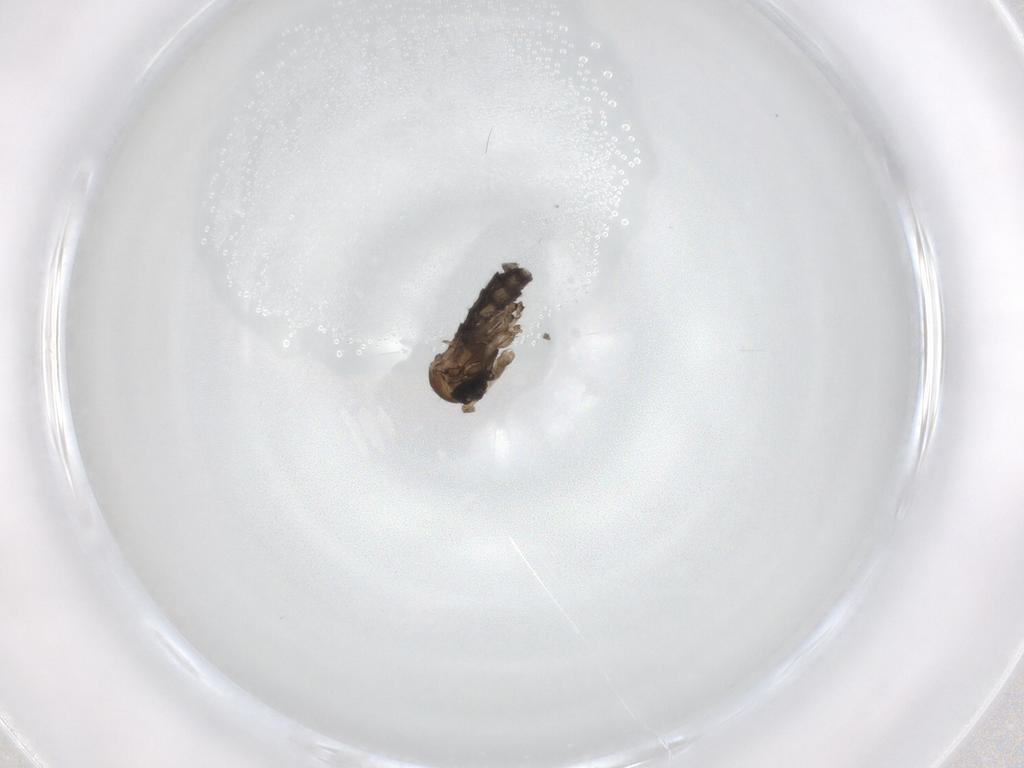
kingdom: Animalia
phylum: Arthropoda
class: Insecta
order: Diptera
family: Sciaridae
